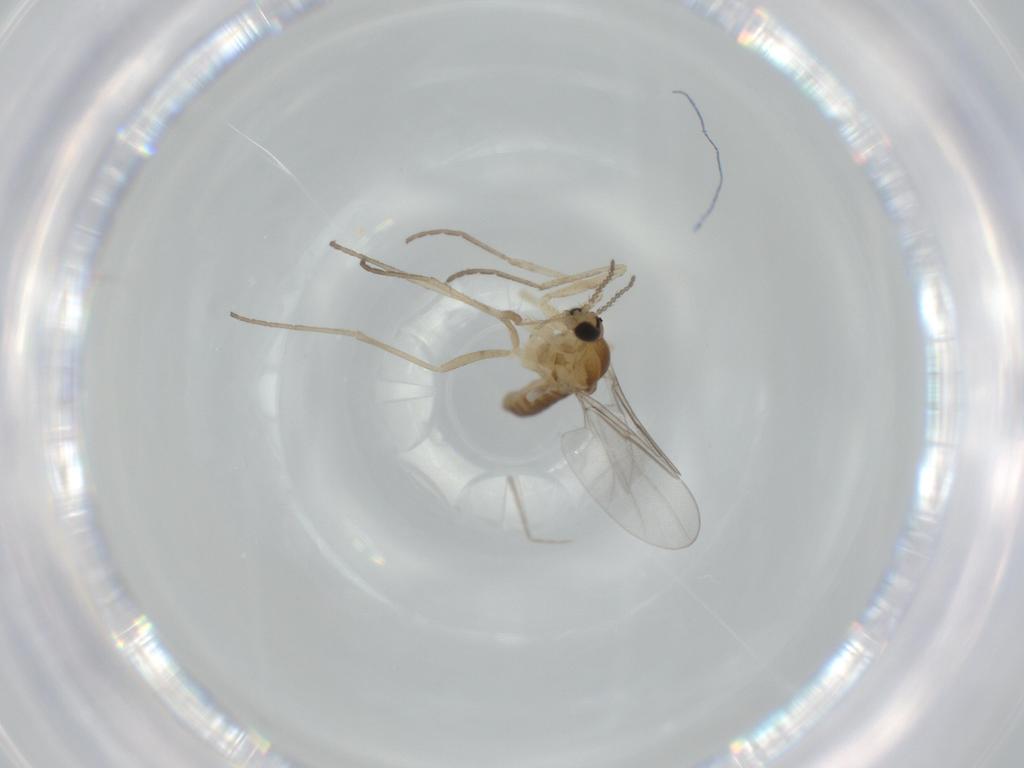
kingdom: Animalia
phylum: Arthropoda
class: Insecta
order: Diptera
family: Cecidomyiidae
